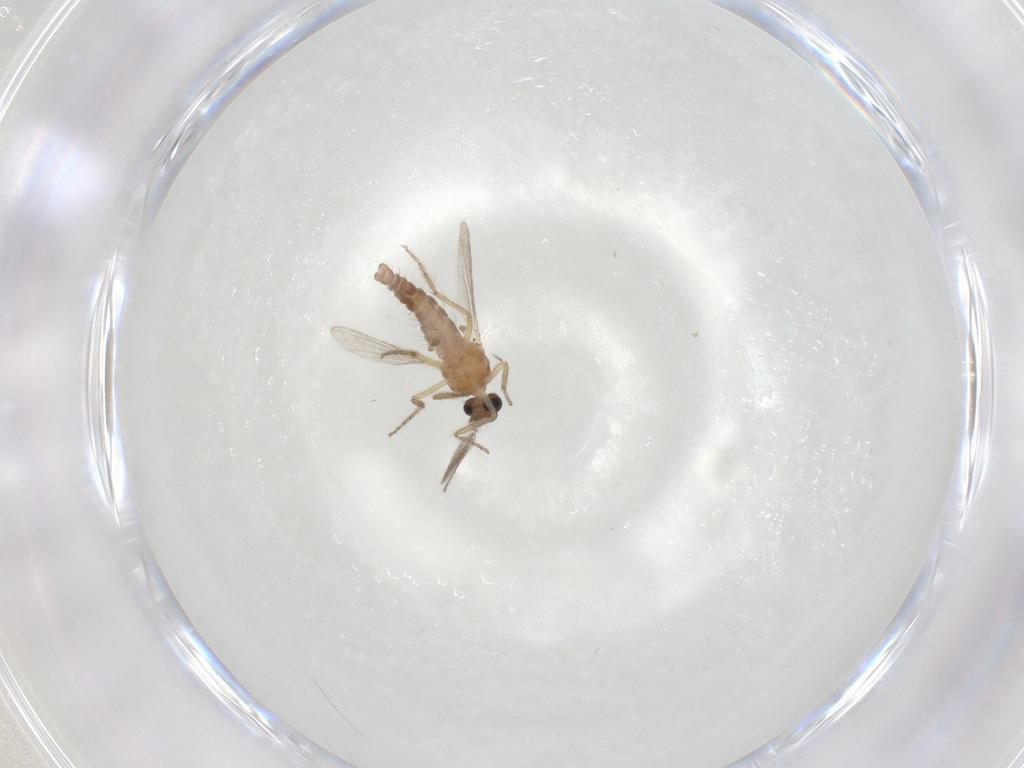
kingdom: Animalia
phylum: Arthropoda
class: Insecta
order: Diptera
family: Ceratopogonidae
